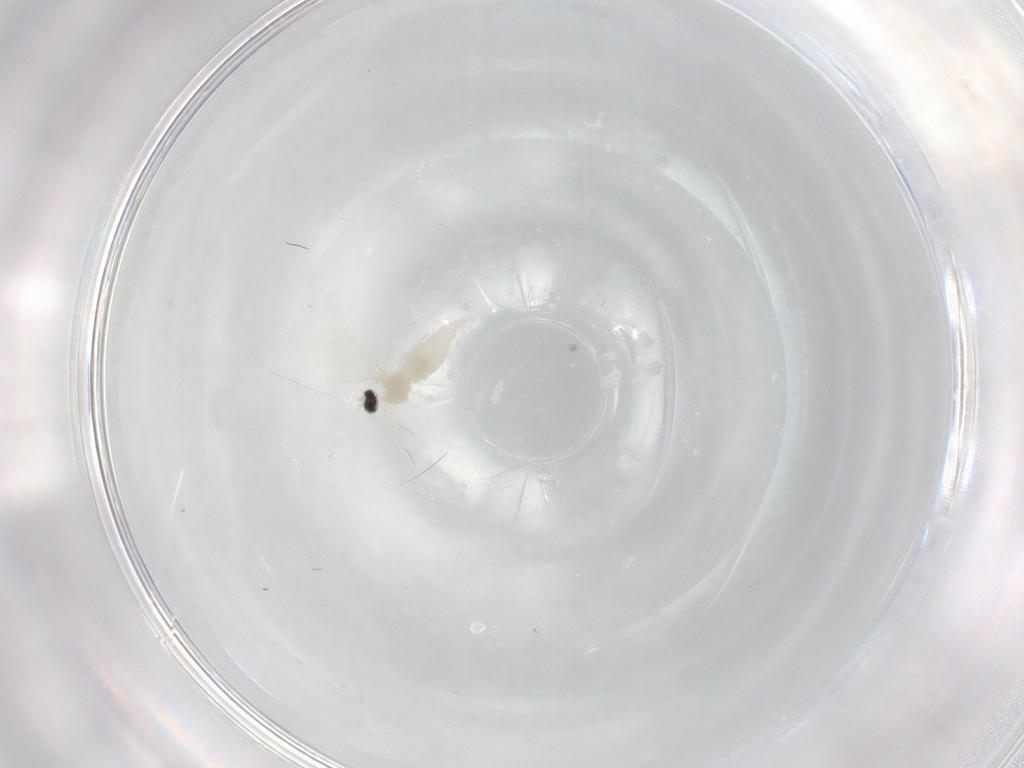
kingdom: Animalia
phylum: Arthropoda
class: Insecta
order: Diptera
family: Cecidomyiidae
